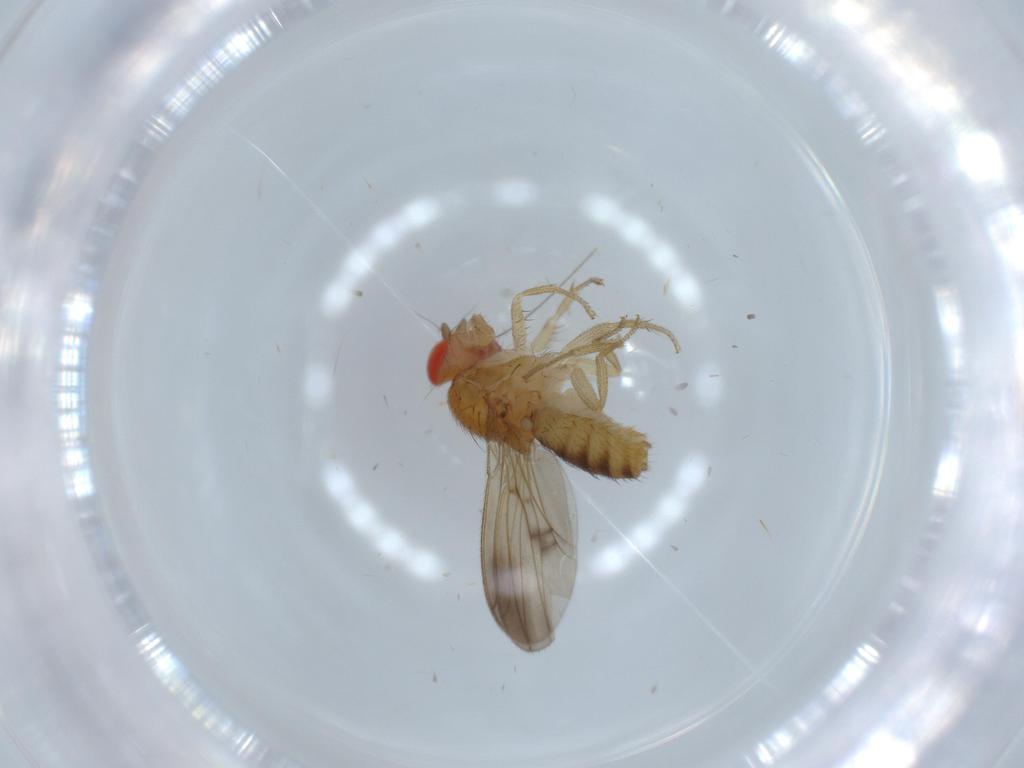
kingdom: Animalia
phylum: Arthropoda
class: Insecta
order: Diptera
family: Drosophilidae
